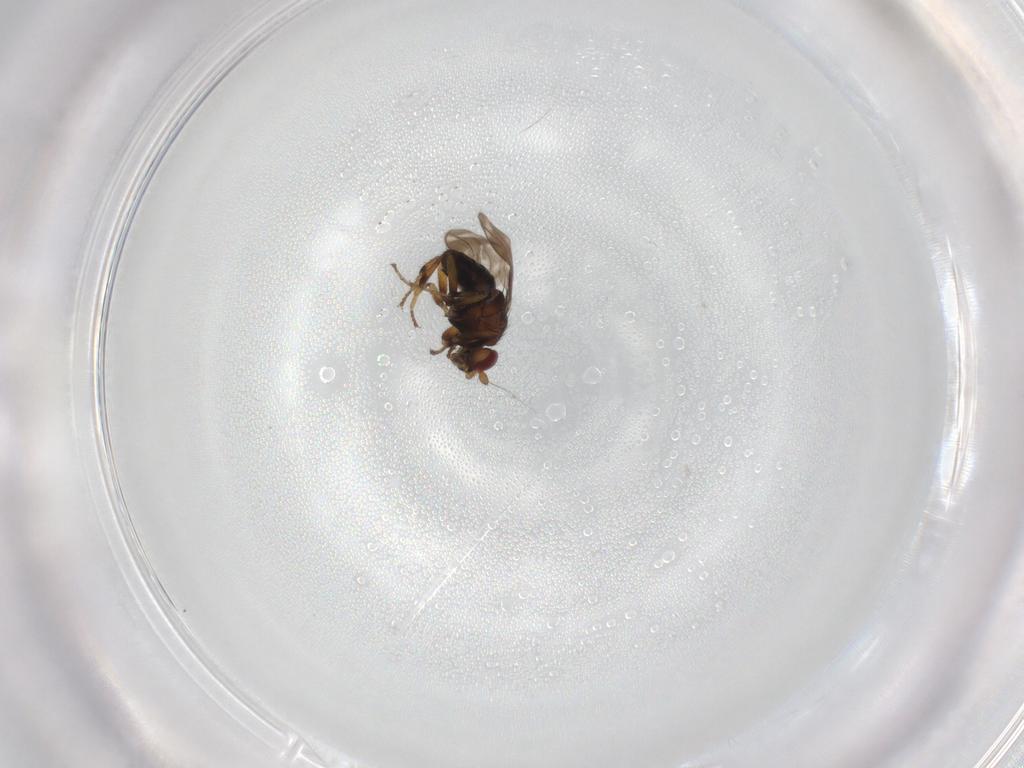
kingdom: Animalia
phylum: Arthropoda
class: Insecta
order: Diptera
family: Sphaeroceridae
